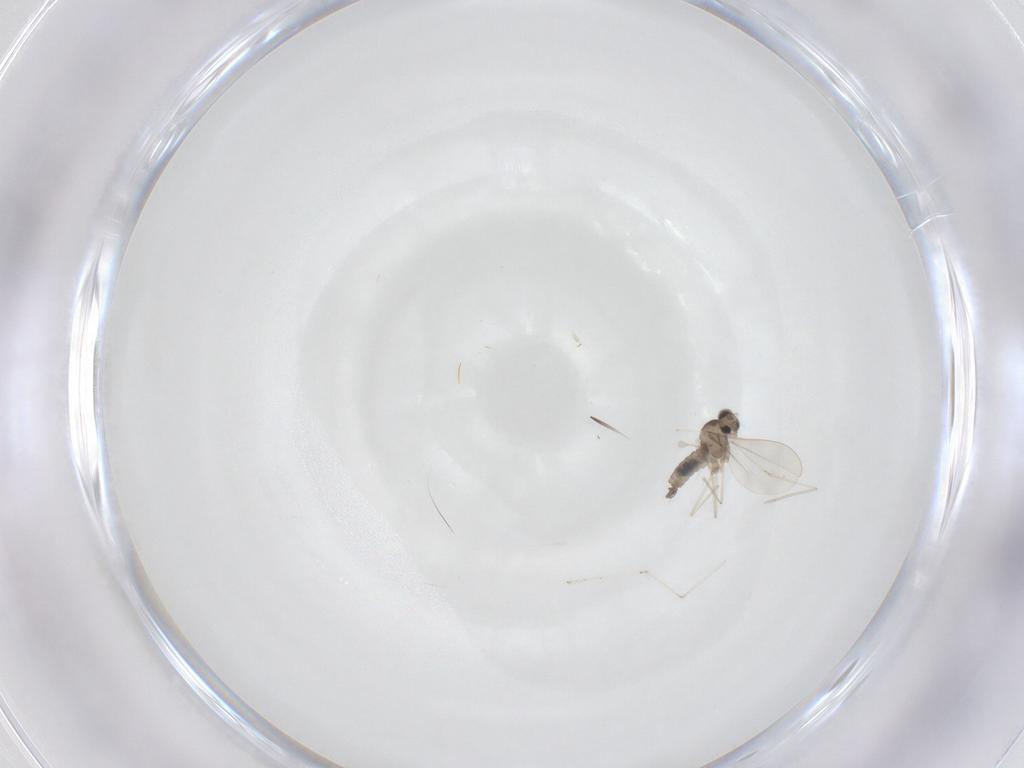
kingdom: Animalia
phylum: Arthropoda
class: Insecta
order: Diptera
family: Cecidomyiidae
